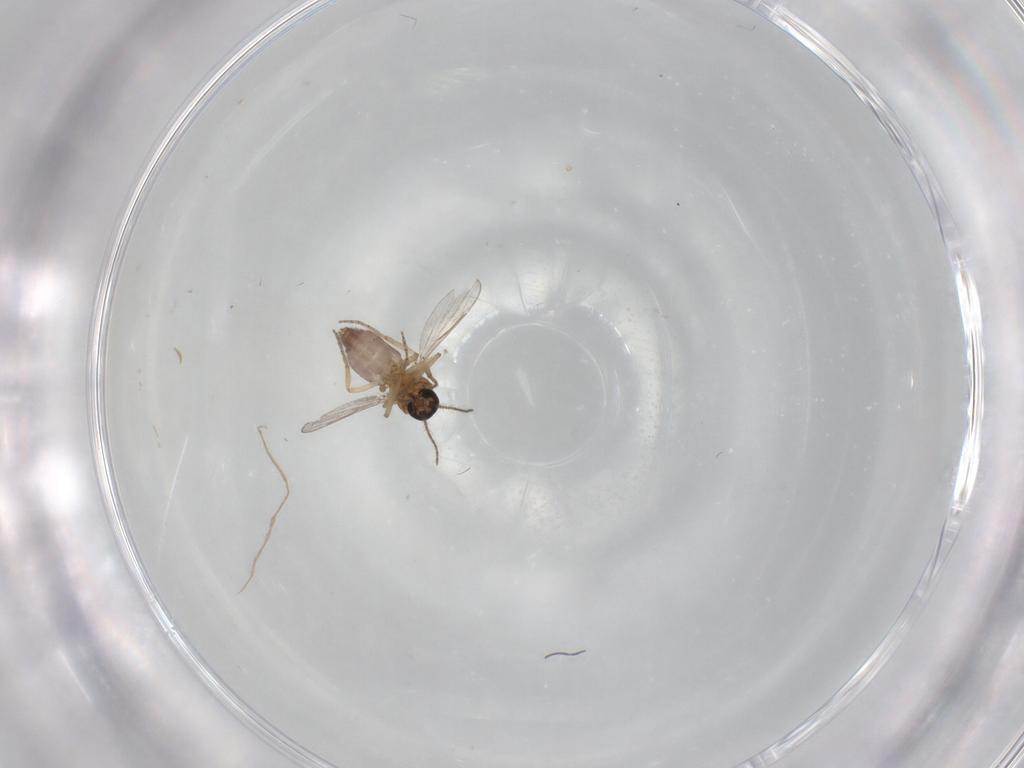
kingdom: Animalia
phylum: Arthropoda
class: Insecta
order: Diptera
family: Ceratopogonidae
